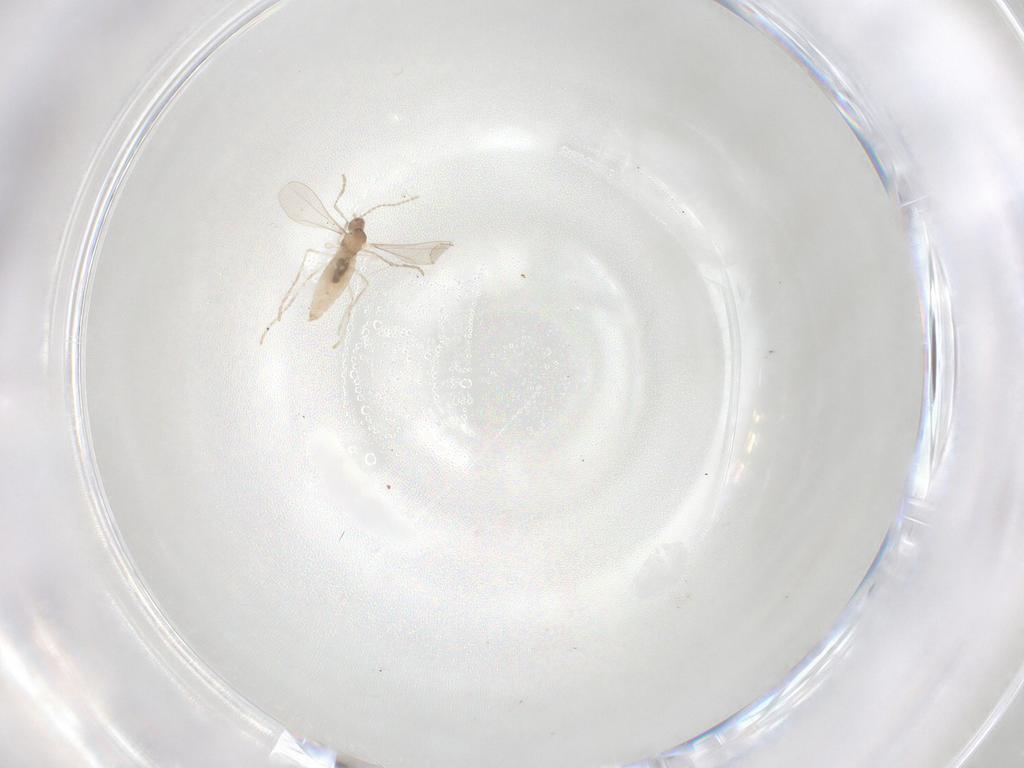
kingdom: Animalia
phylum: Arthropoda
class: Insecta
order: Diptera
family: Cecidomyiidae
